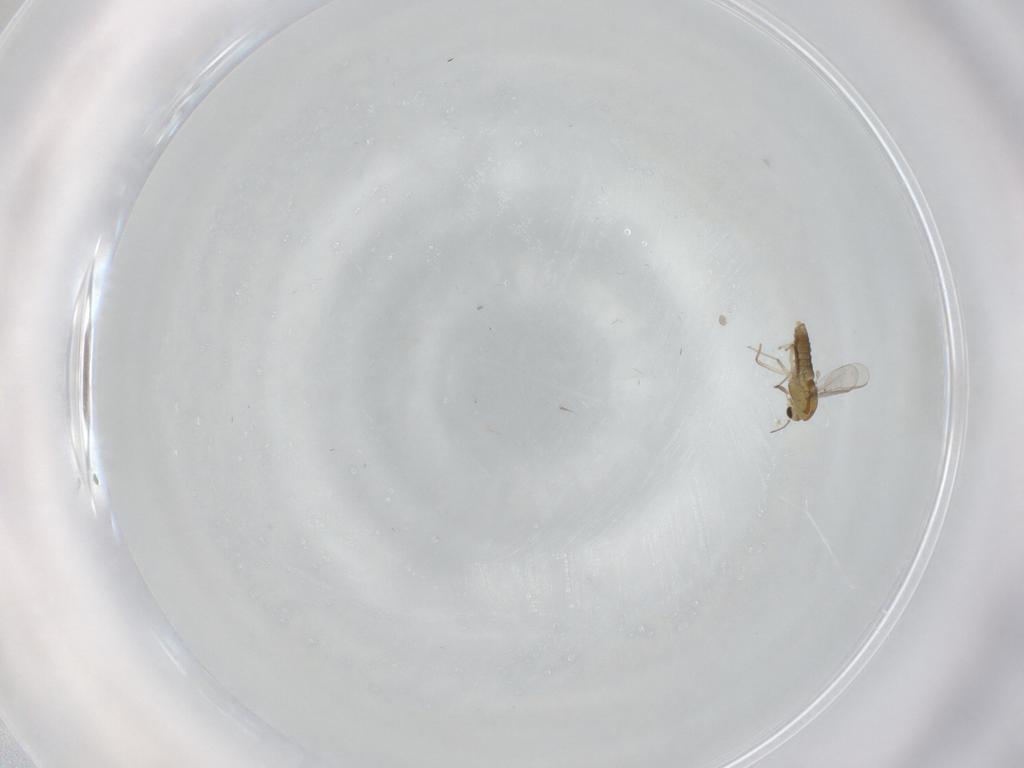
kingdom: Animalia
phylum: Arthropoda
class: Insecta
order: Diptera
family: Chironomidae
